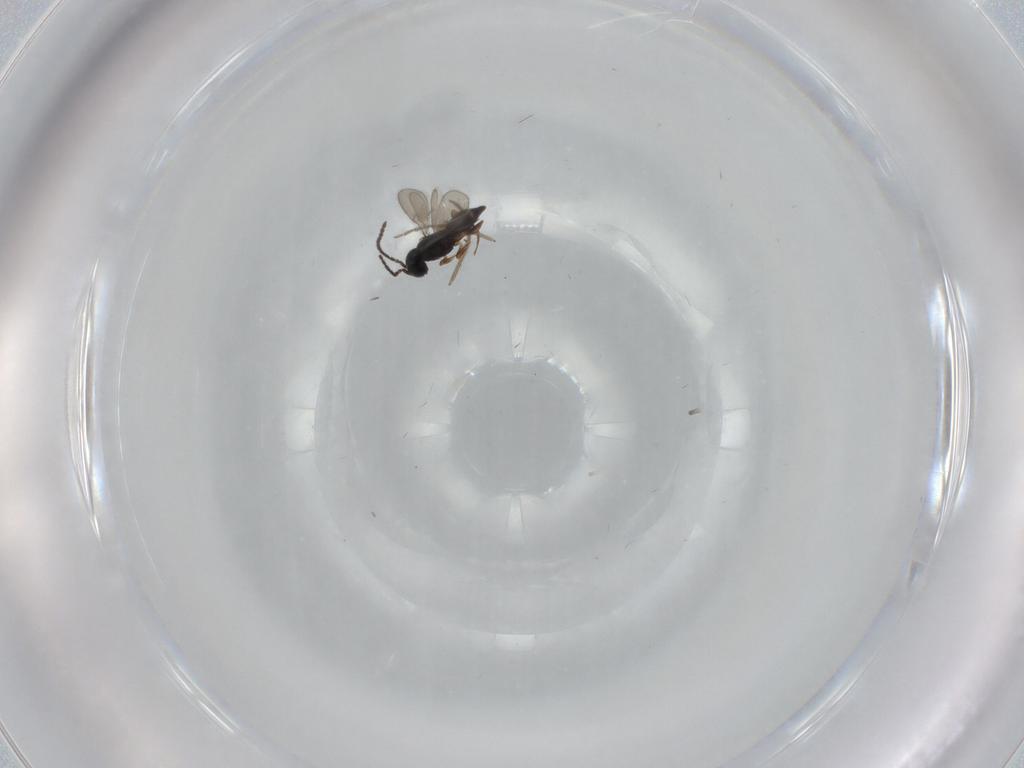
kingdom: Animalia
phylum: Arthropoda
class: Insecta
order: Hymenoptera
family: Scelionidae
